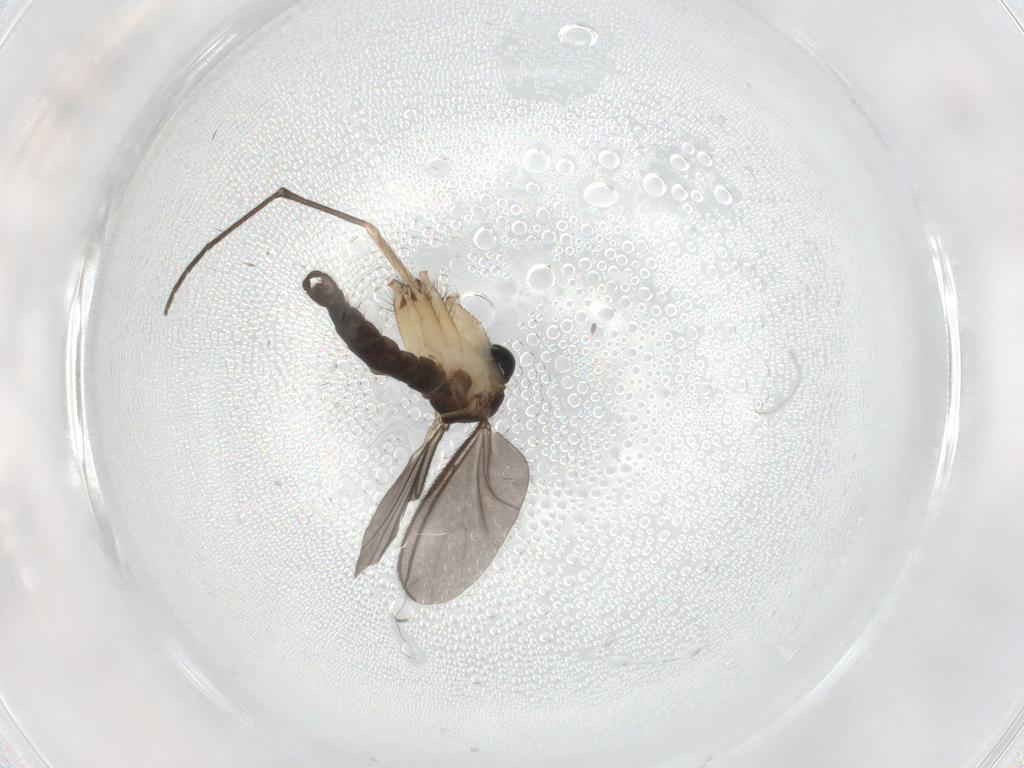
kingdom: Animalia
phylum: Arthropoda
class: Insecta
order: Diptera
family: Sciaridae
